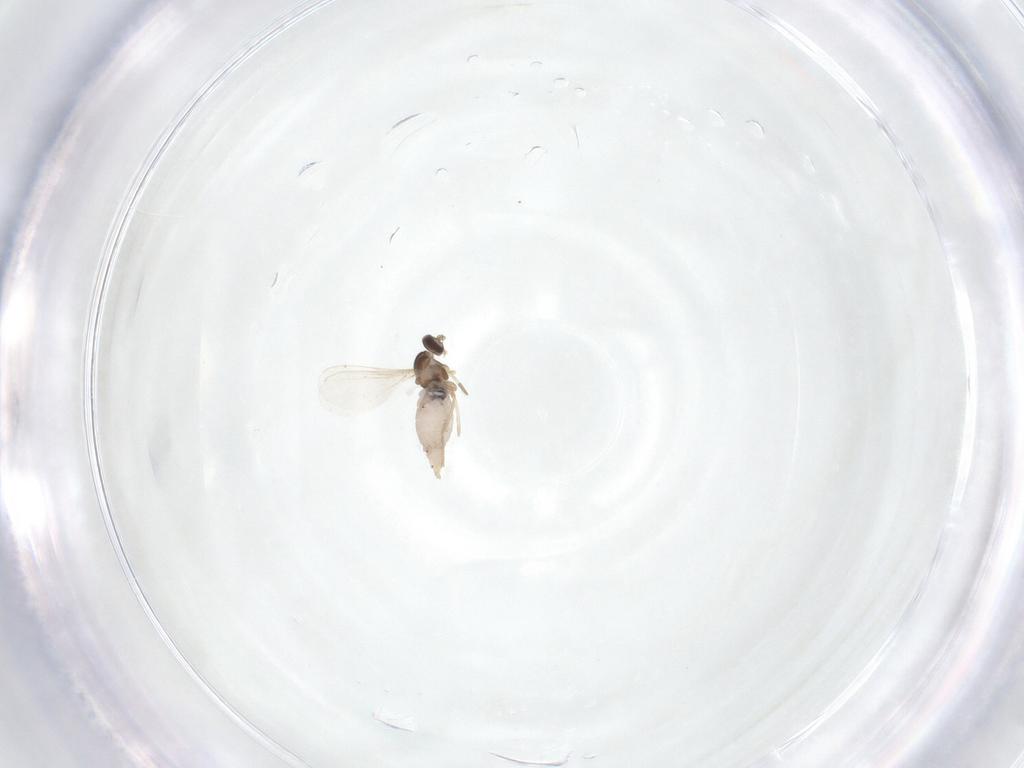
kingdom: Animalia
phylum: Arthropoda
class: Insecta
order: Diptera
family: Cecidomyiidae
